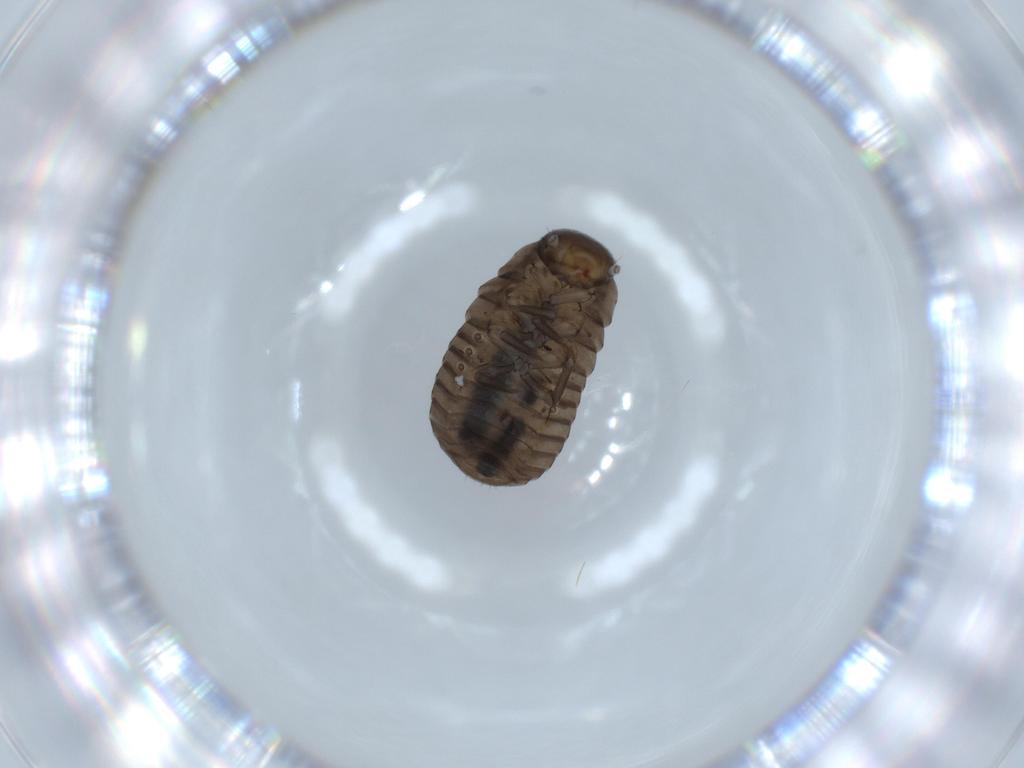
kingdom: Animalia
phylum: Arthropoda
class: Insecta
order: Coleoptera
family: Tenebrionidae
